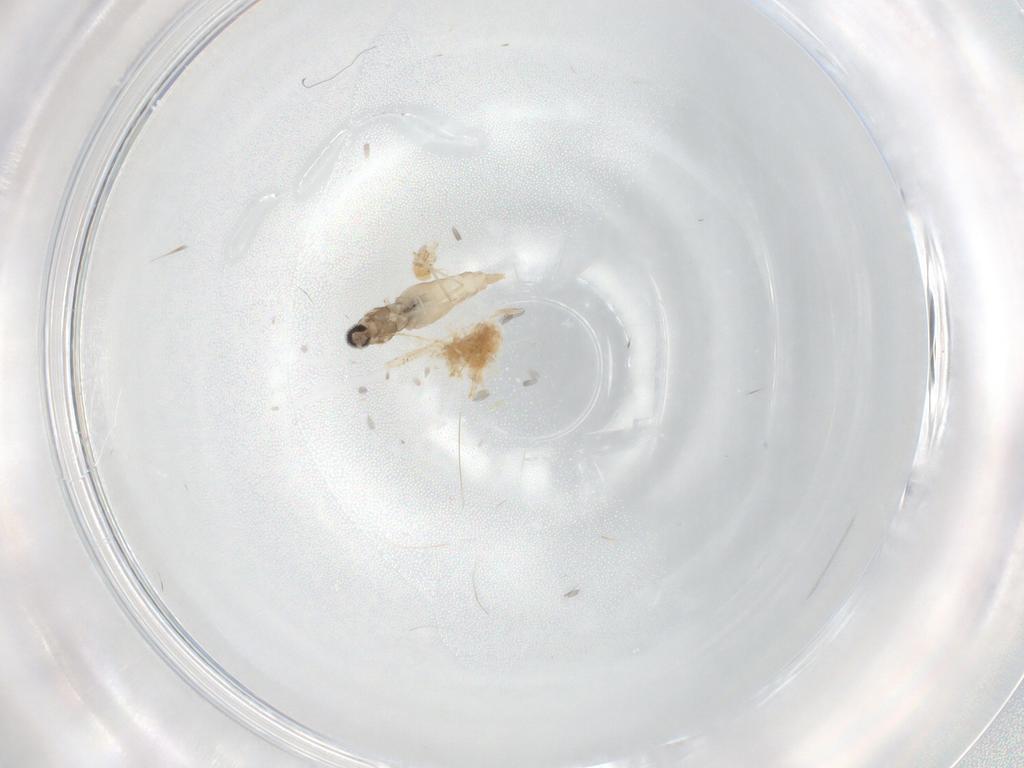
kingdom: Animalia
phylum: Arthropoda
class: Insecta
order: Diptera
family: Cecidomyiidae
